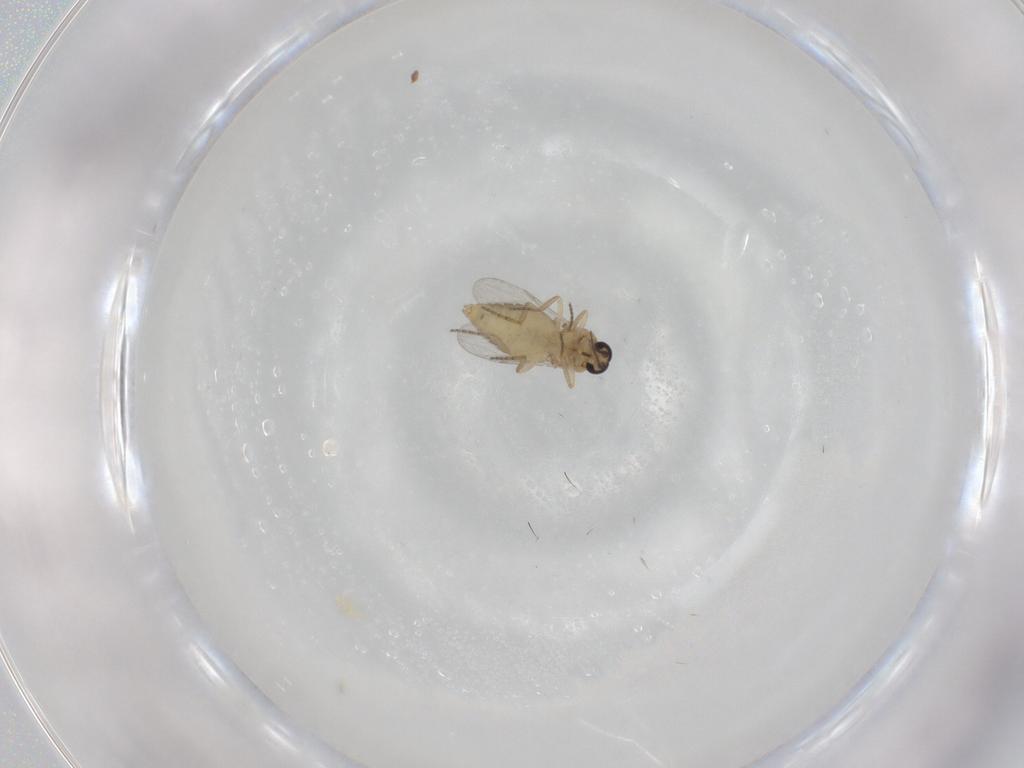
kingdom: Animalia
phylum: Arthropoda
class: Insecta
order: Diptera
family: Ceratopogonidae
